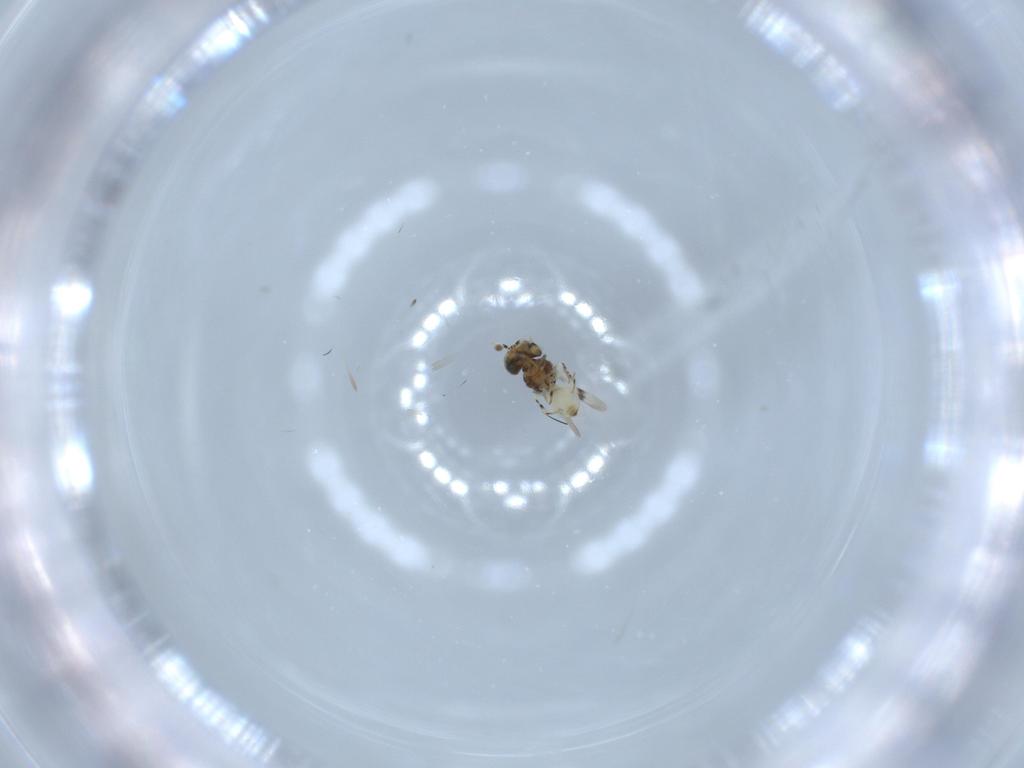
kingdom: Animalia
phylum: Arthropoda
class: Insecta
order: Hymenoptera
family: Scelionidae
